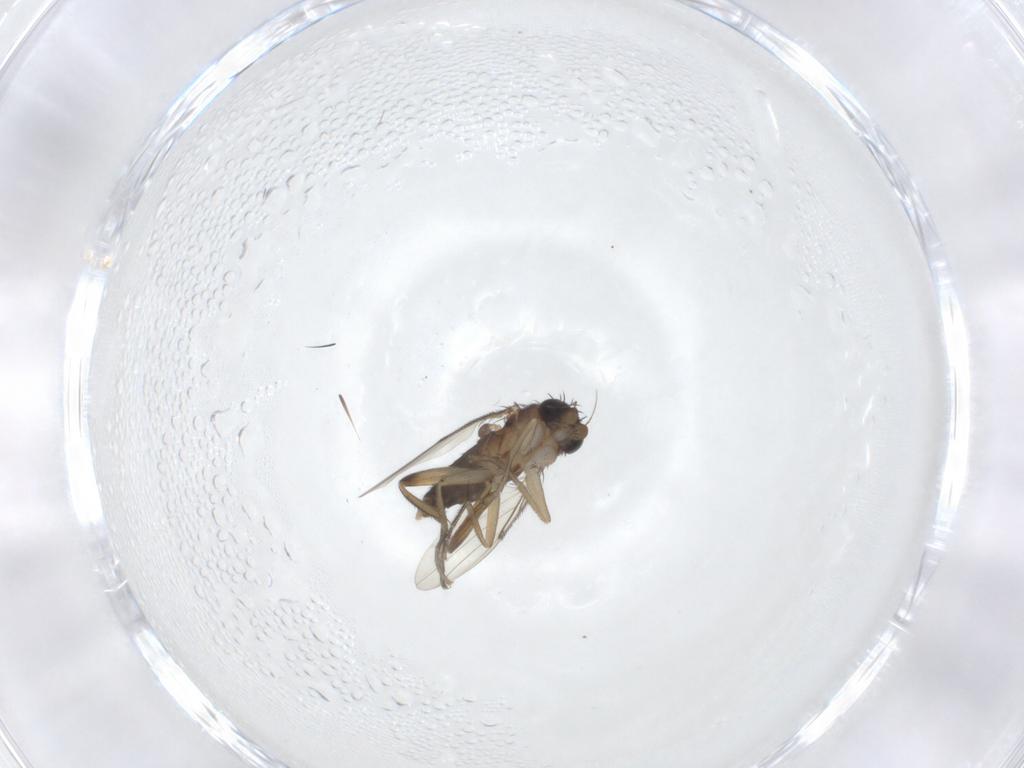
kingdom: Animalia
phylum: Arthropoda
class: Insecta
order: Diptera
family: Phoridae
